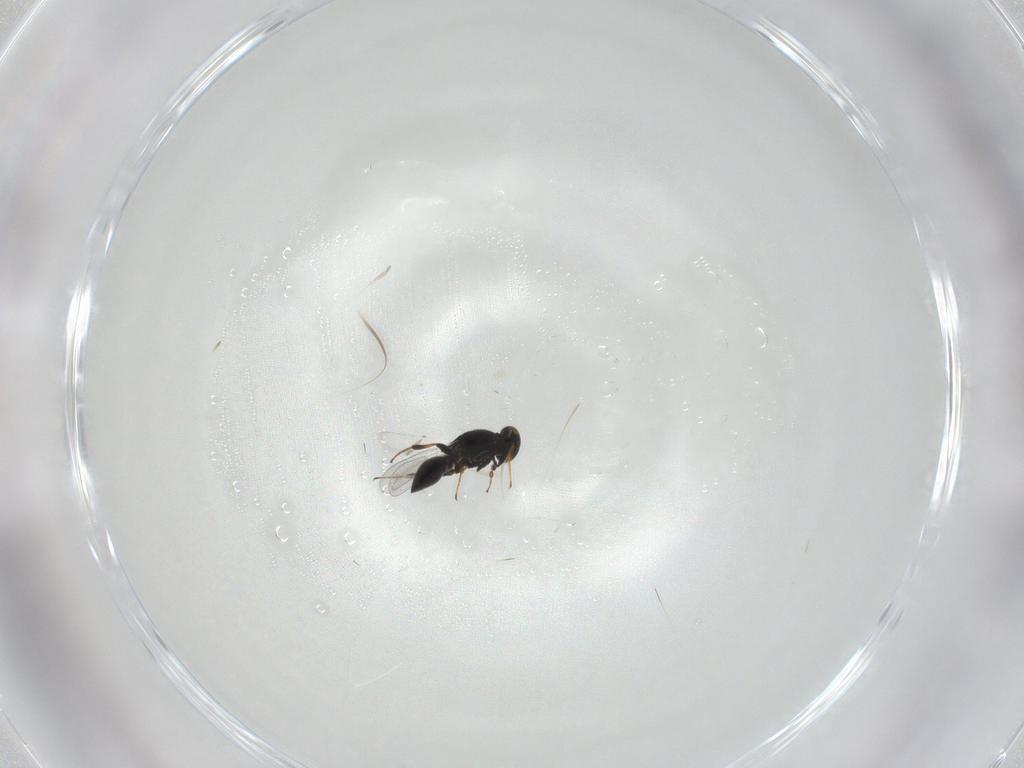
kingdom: Animalia
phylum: Arthropoda
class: Insecta
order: Hemiptera
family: Aleyrodidae
